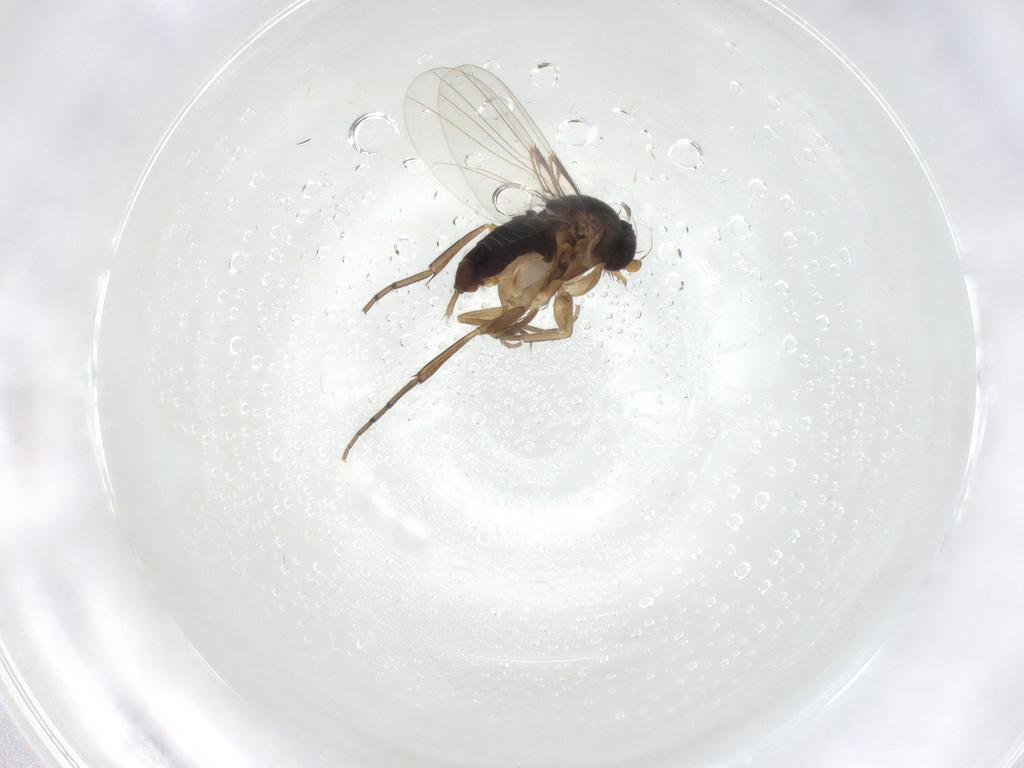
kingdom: Animalia
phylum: Arthropoda
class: Insecta
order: Diptera
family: Phoridae
